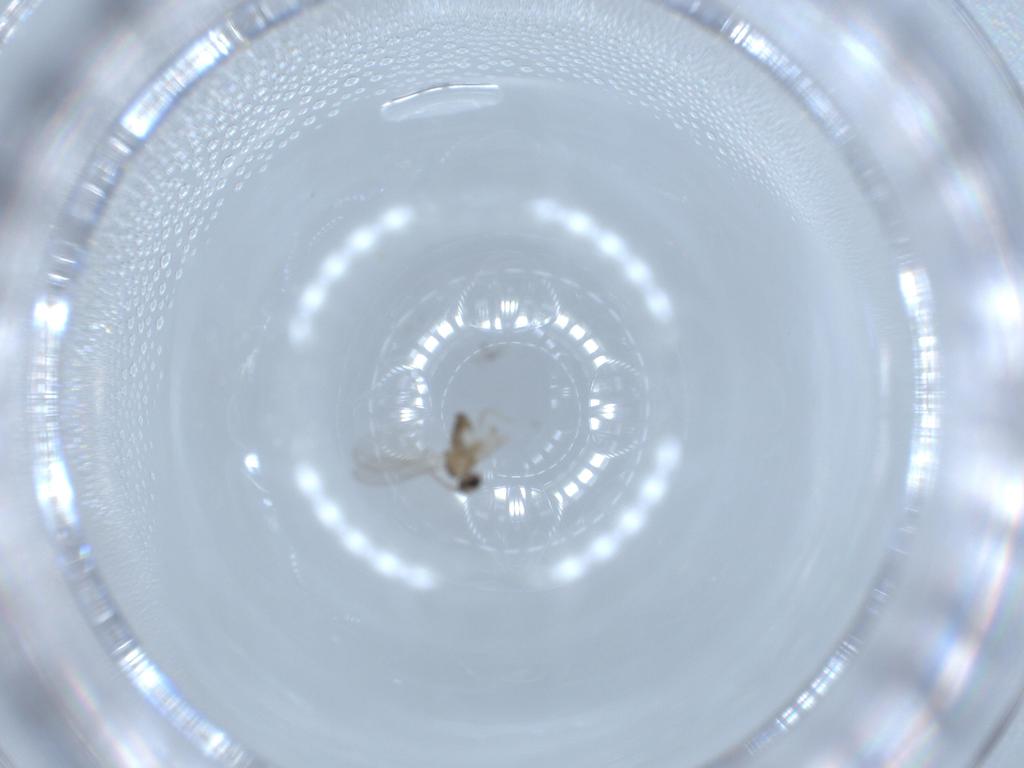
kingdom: Animalia
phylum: Arthropoda
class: Insecta
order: Diptera
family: Cecidomyiidae
